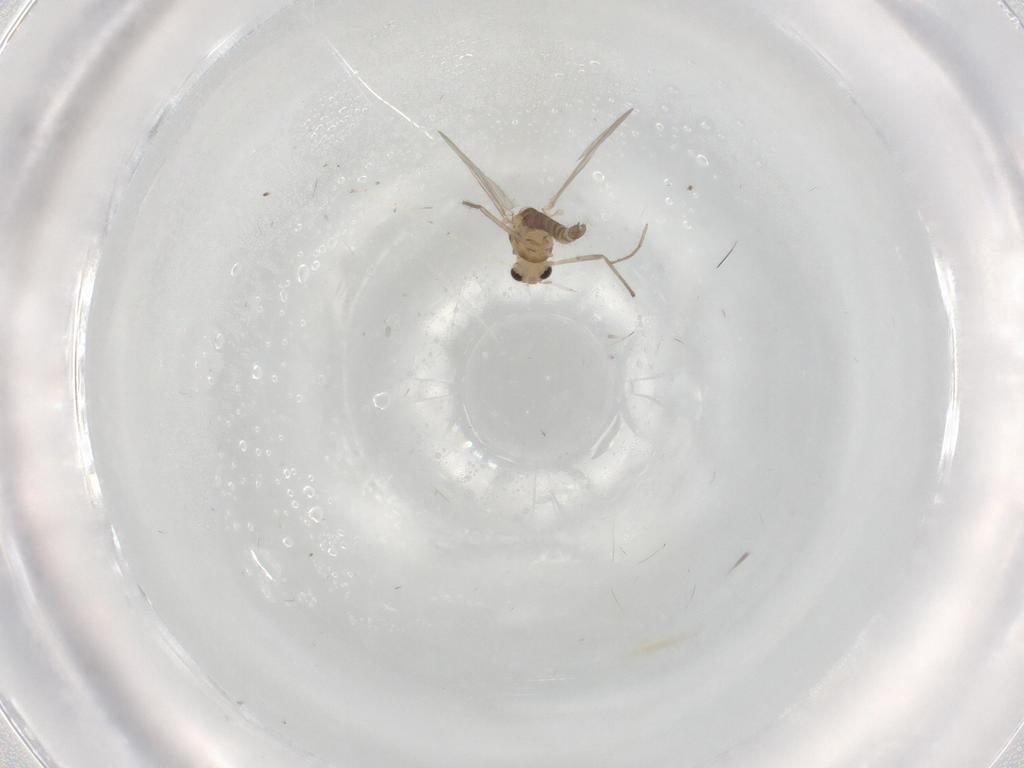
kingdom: Animalia
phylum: Arthropoda
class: Insecta
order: Diptera
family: Chironomidae
